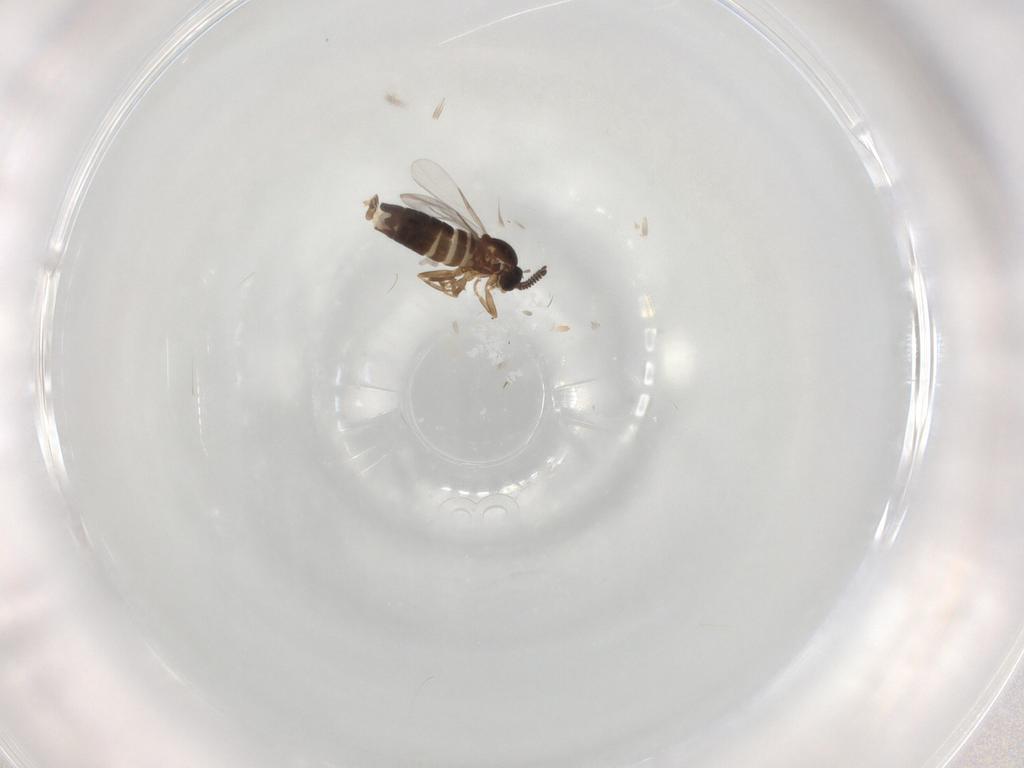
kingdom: Animalia
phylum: Arthropoda
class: Insecta
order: Diptera
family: Scatopsidae
